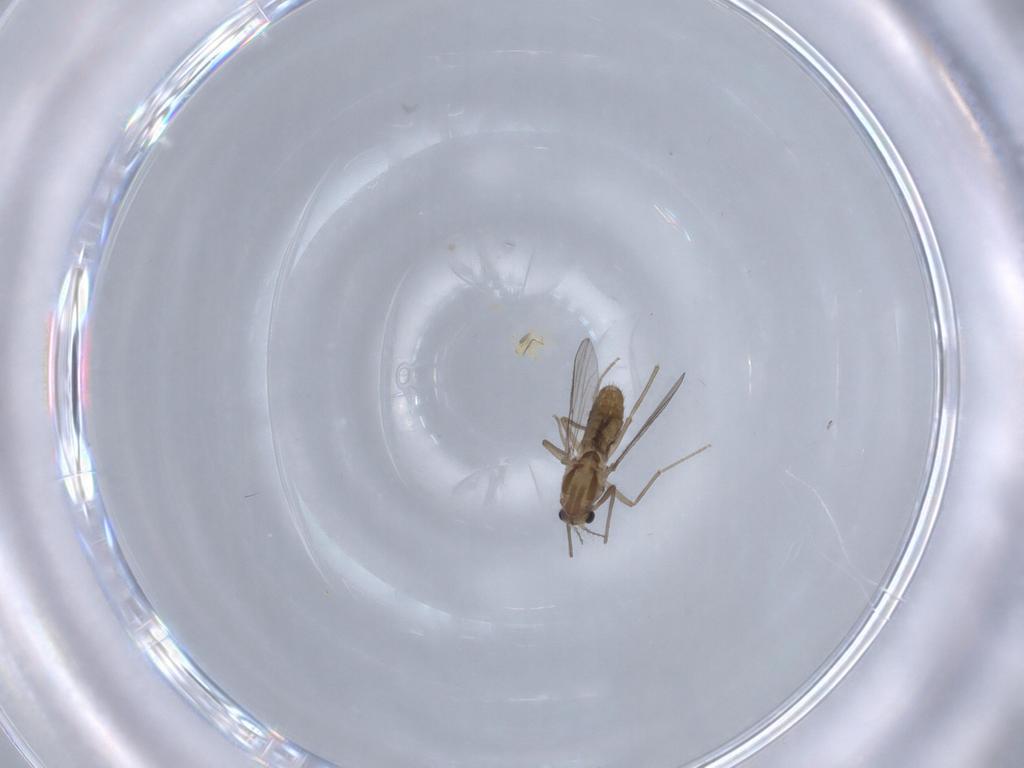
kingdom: Animalia
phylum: Arthropoda
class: Insecta
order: Diptera
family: Chironomidae
